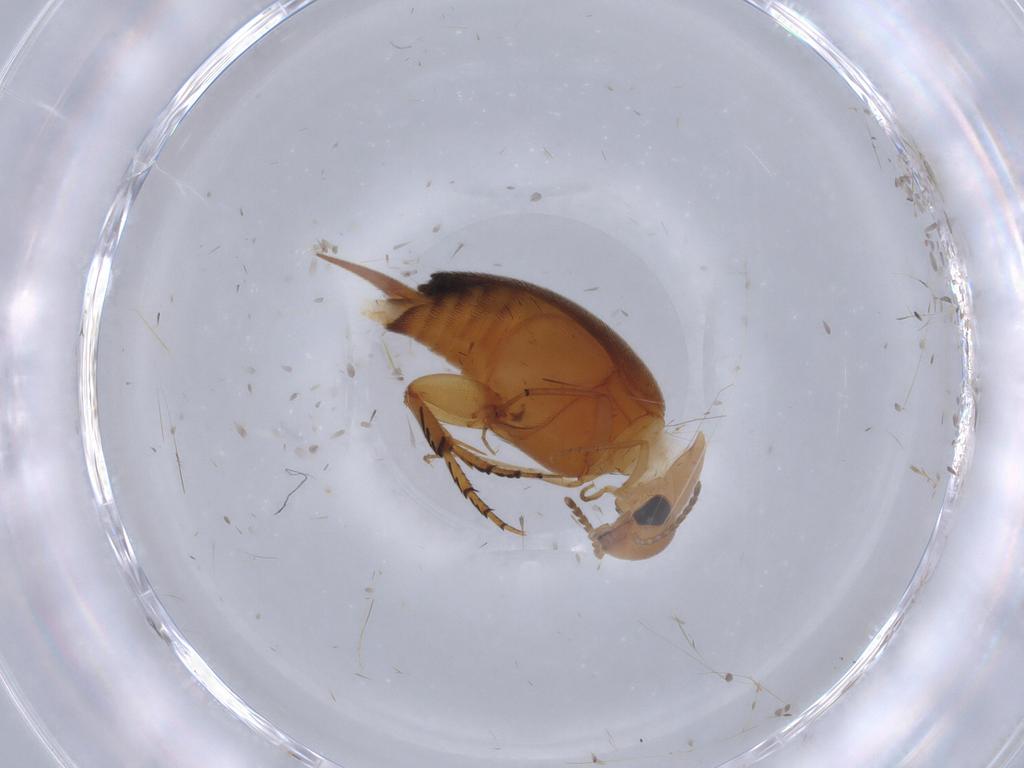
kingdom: Animalia
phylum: Arthropoda
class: Insecta
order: Coleoptera
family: Mordellidae
